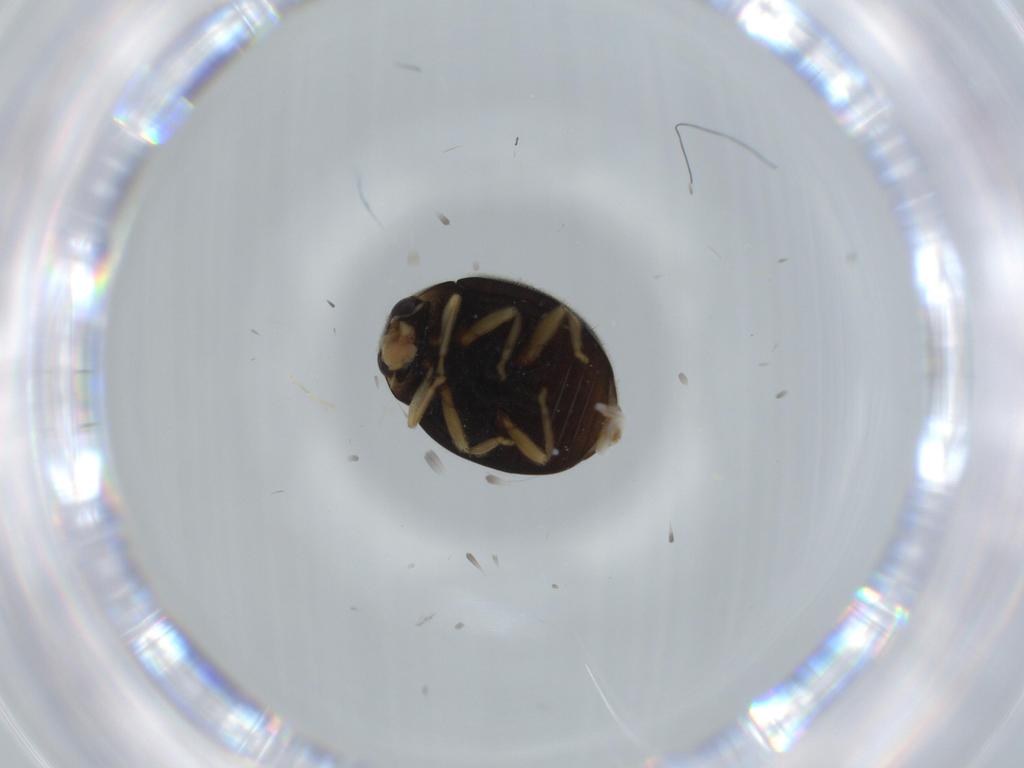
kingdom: Animalia
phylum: Arthropoda
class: Insecta
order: Coleoptera
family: Coccinellidae
